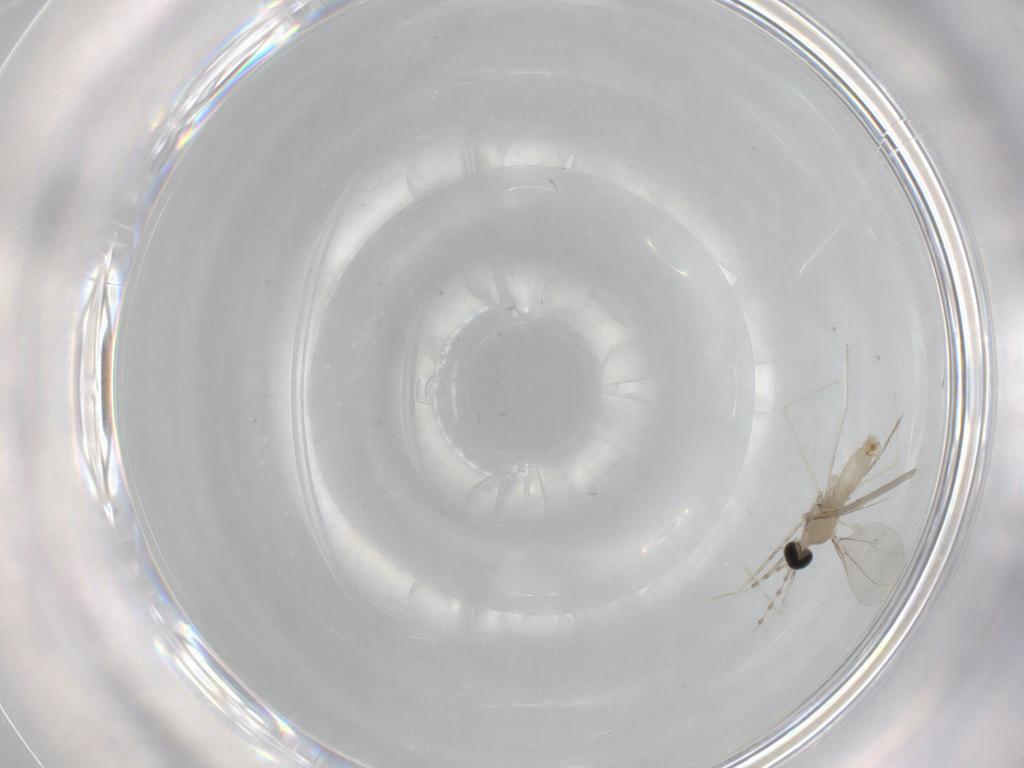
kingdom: Animalia
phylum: Arthropoda
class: Insecta
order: Diptera
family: Cecidomyiidae
